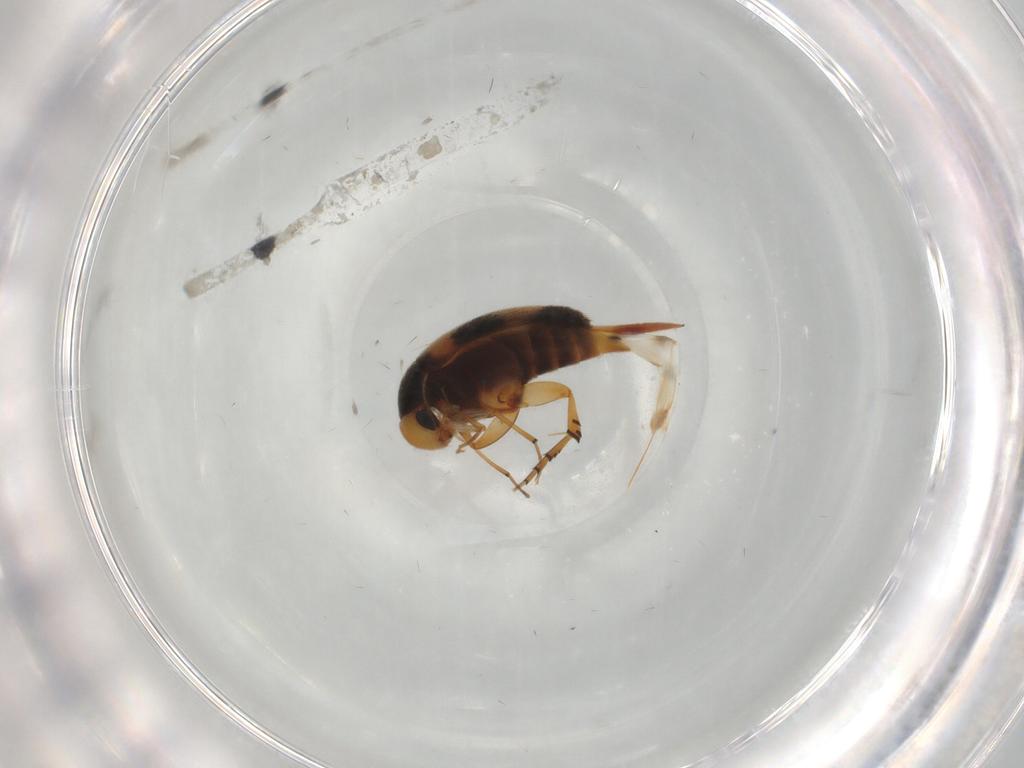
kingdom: Animalia
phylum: Arthropoda
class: Insecta
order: Coleoptera
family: Mordellidae
